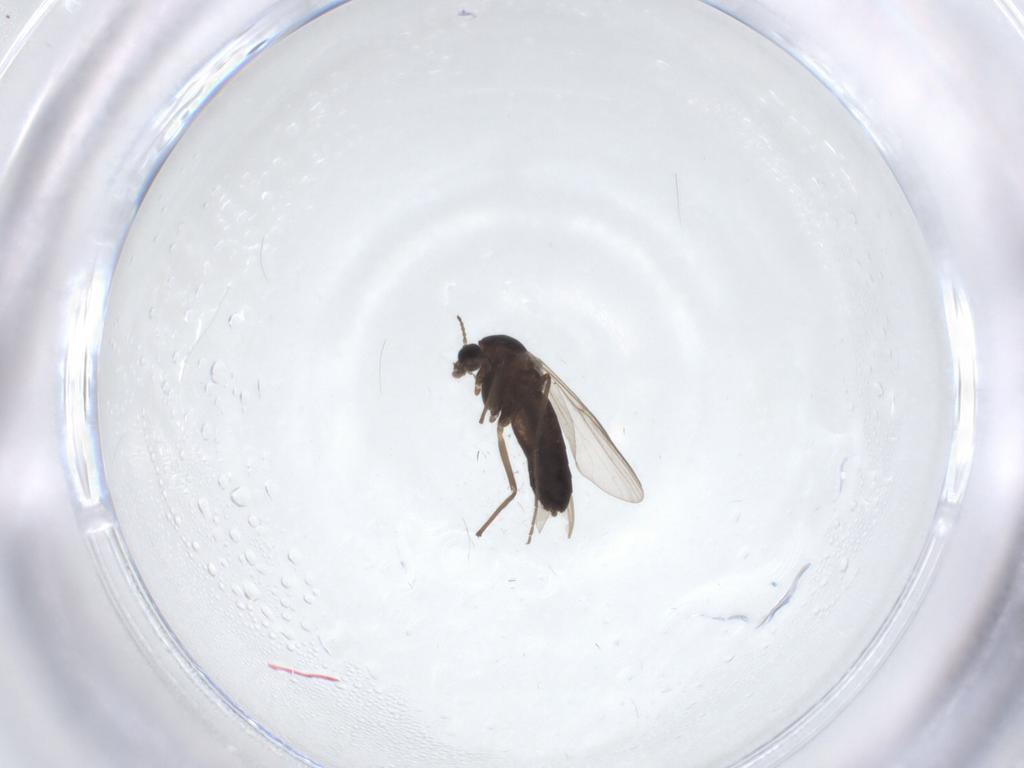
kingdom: Animalia
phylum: Arthropoda
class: Insecta
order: Diptera
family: Chironomidae
